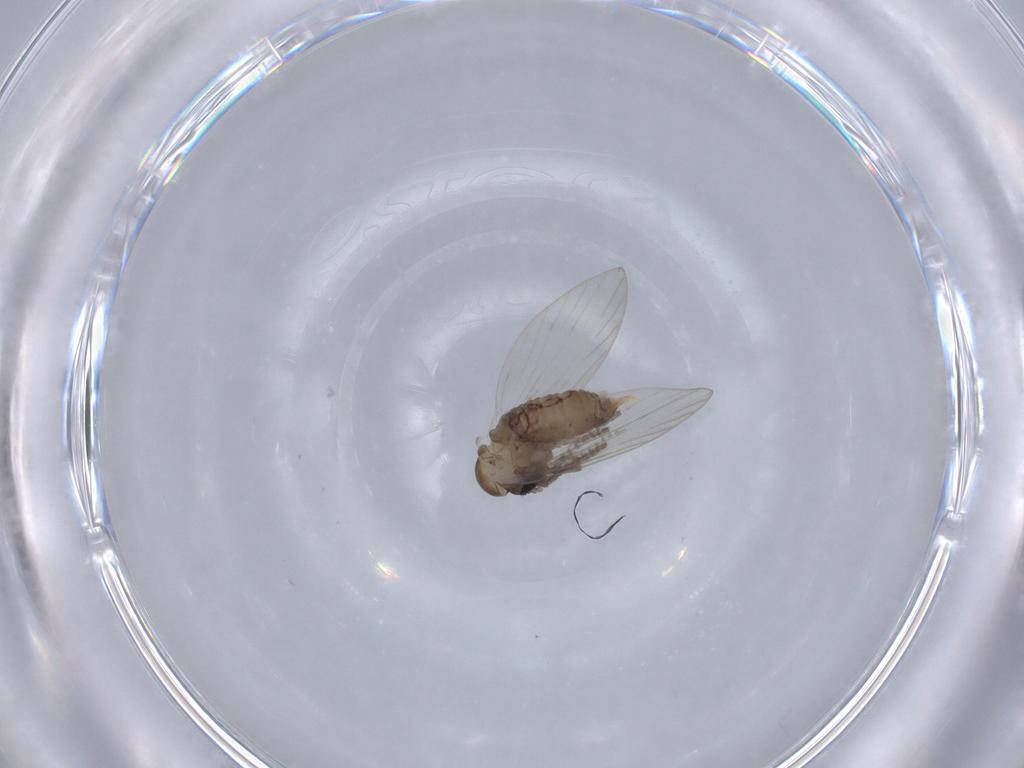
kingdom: Animalia
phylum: Arthropoda
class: Insecta
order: Diptera
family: Psychodidae
